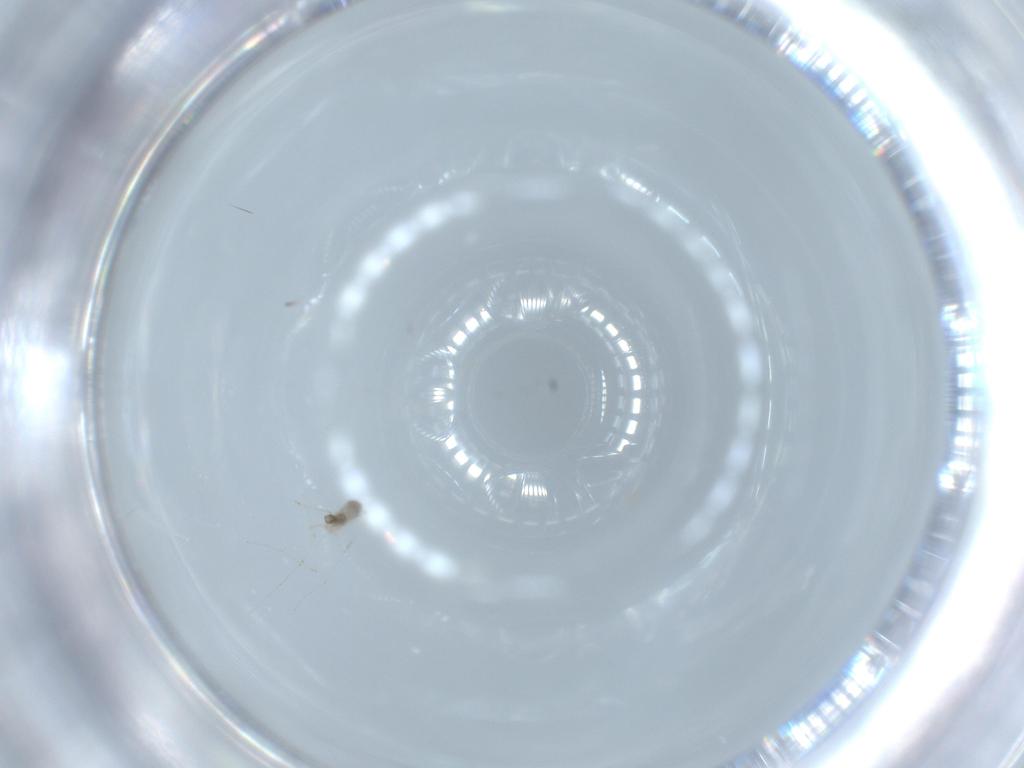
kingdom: Animalia
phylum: Arthropoda
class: Insecta
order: Diptera
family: Cecidomyiidae
